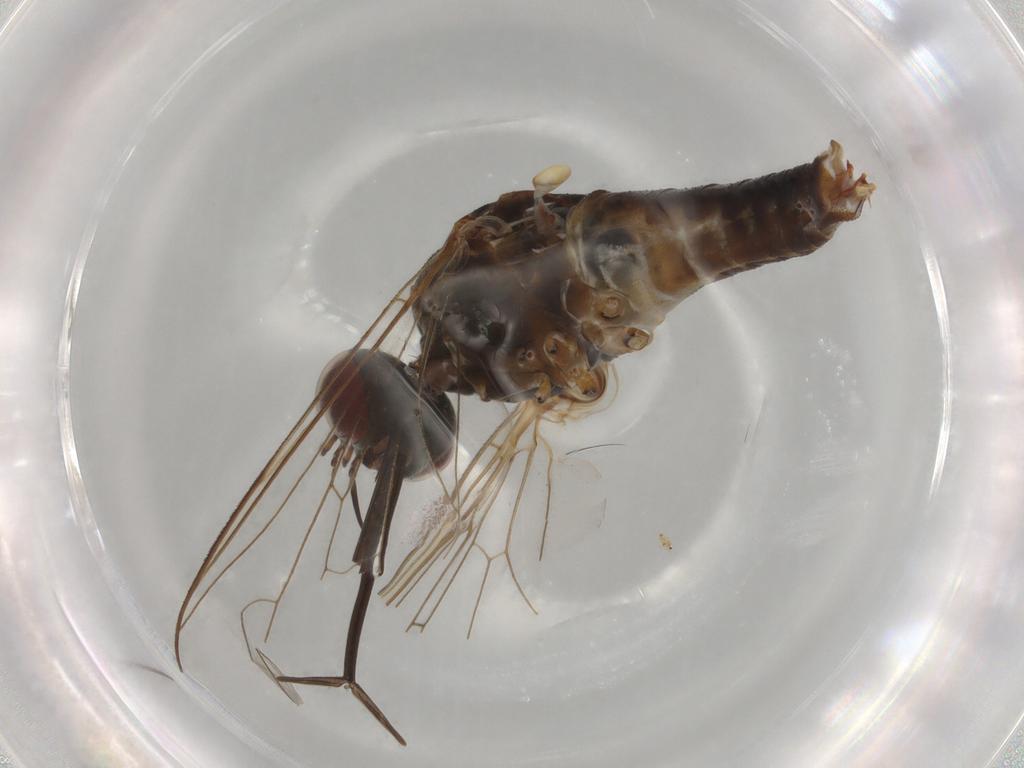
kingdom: Animalia
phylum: Arthropoda
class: Insecta
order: Diptera
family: Bombyliidae
